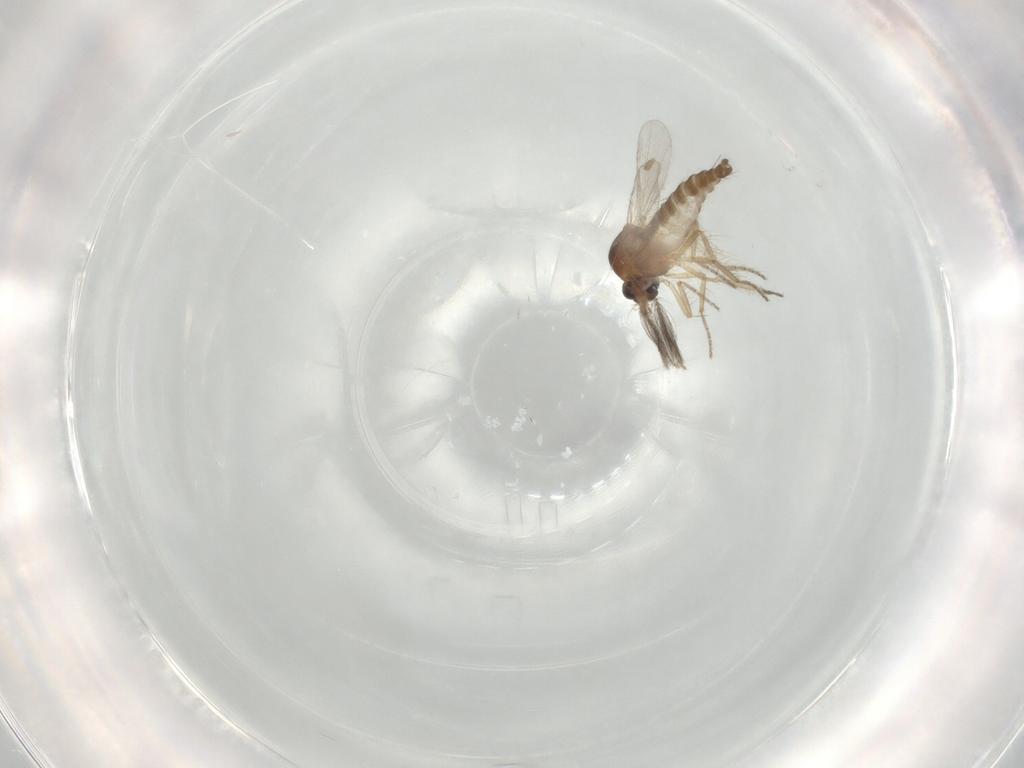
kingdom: Animalia
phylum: Arthropoda
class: Insecta
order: Diptera
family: Ceratopogonidae
